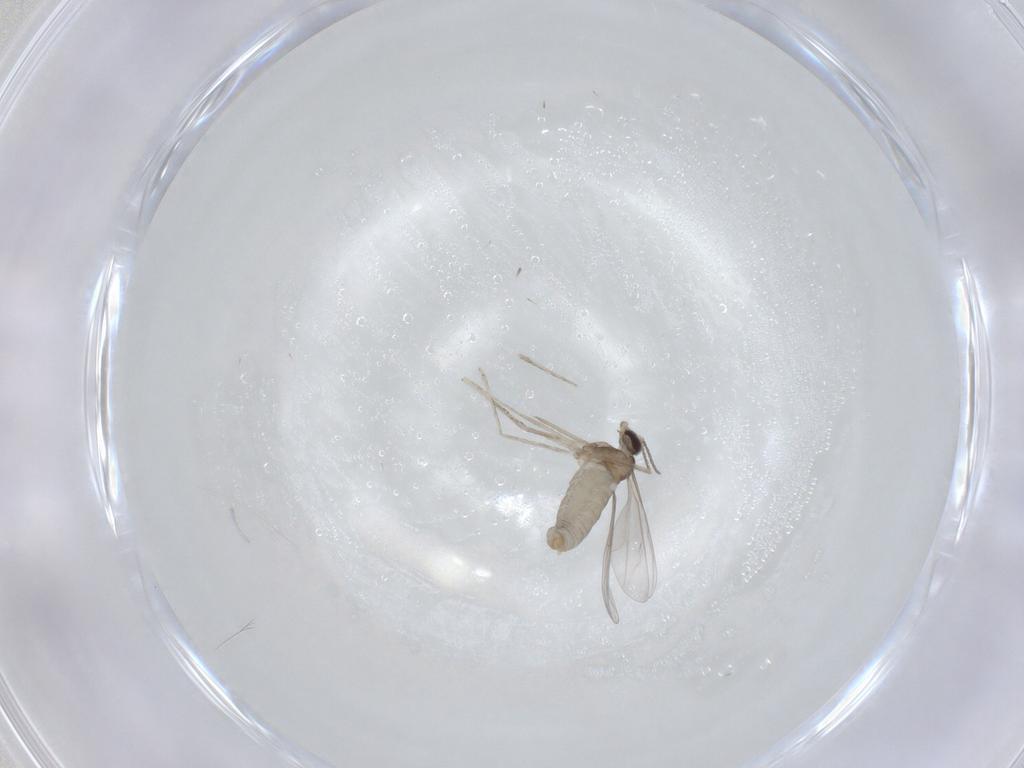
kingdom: Animalia
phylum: Arthropoda
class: Insecta
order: Diptera
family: Cecidomyiidae
